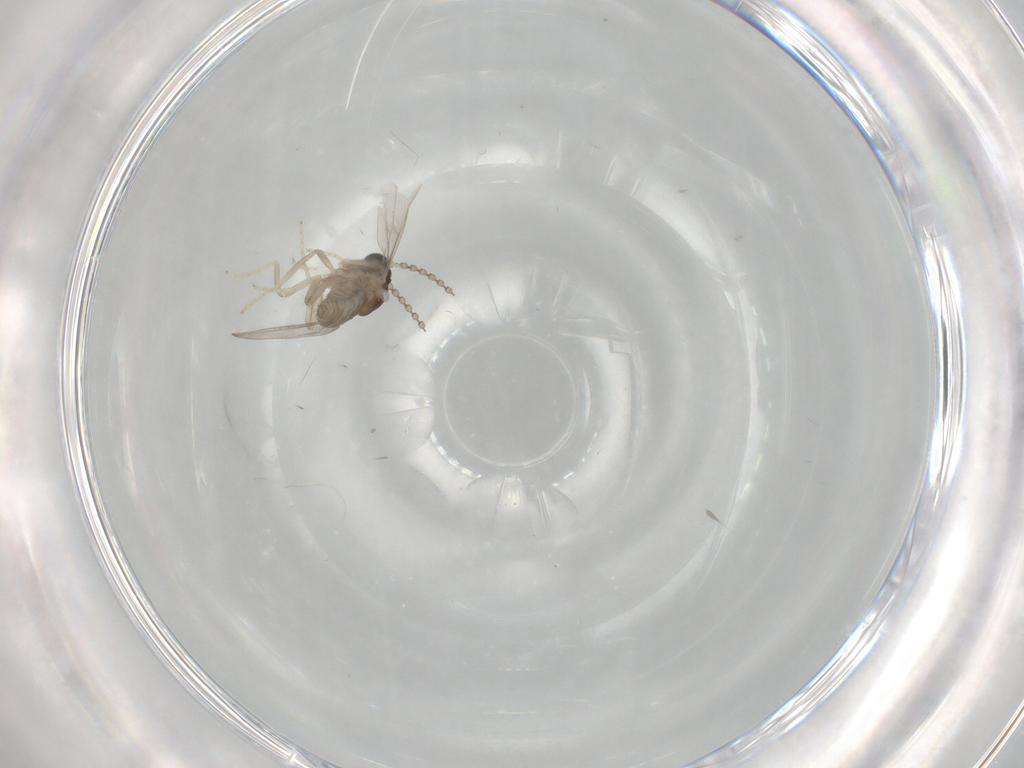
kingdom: Animalia
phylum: Arthropoda
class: Insecta
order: Diptera
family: Cecidomyiidae
